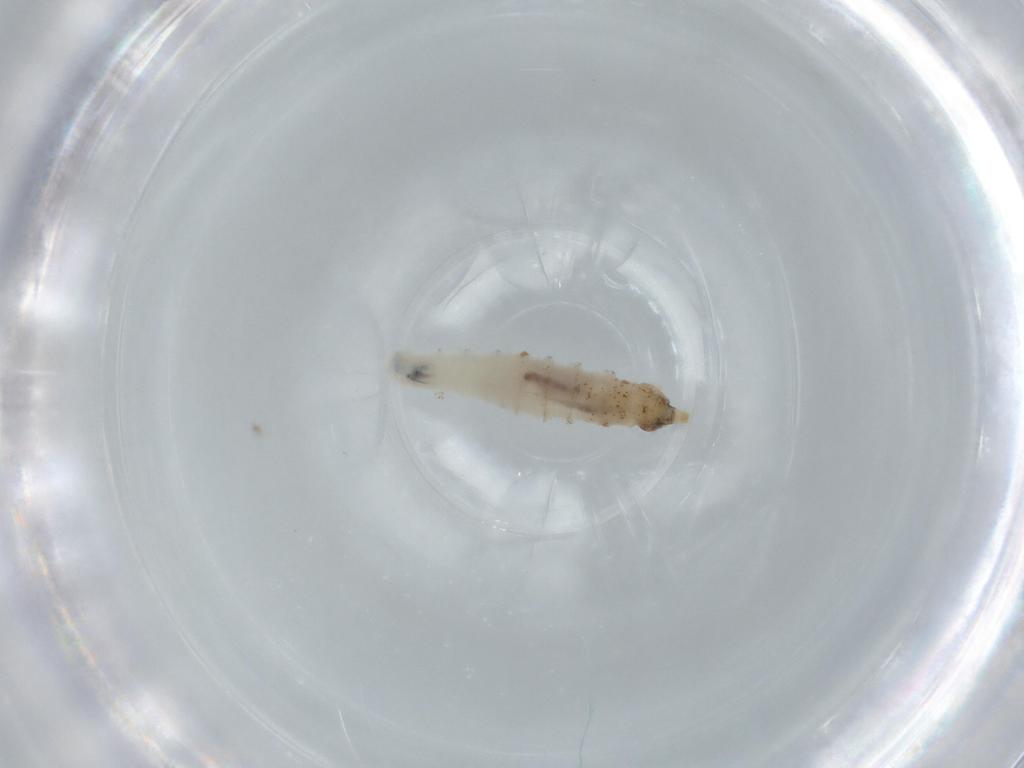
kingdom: Animalia
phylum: Arthropoda
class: Insecta
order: Diptera
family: Drosophilidae
